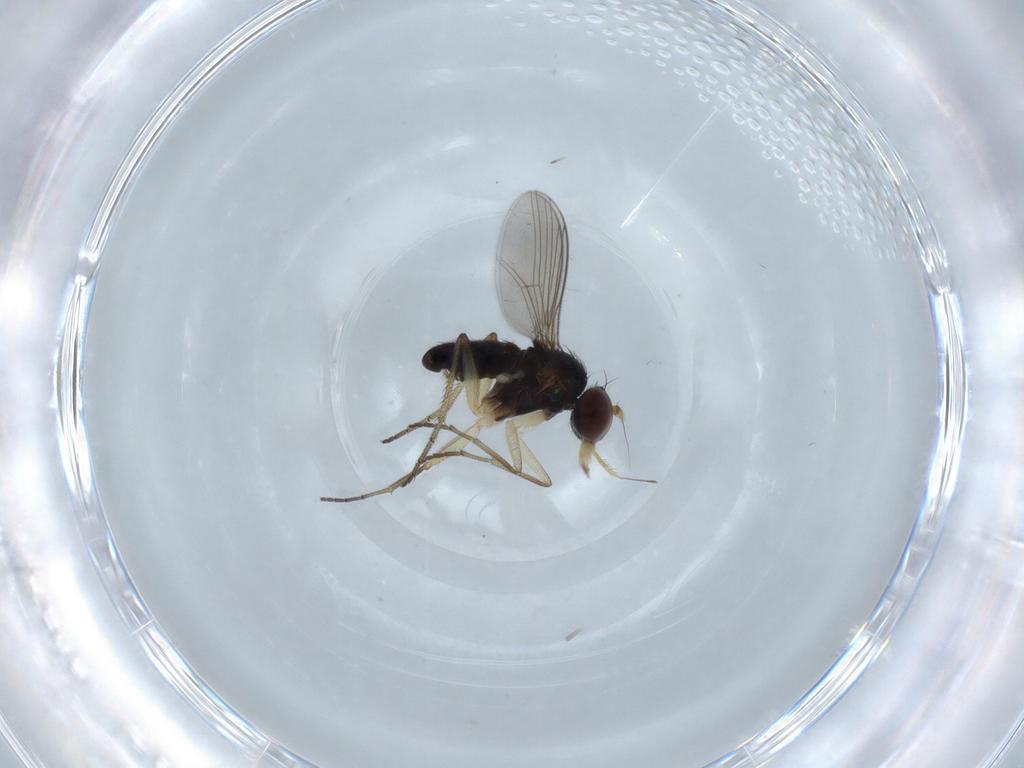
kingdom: Animalia
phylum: Arthropoda
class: Insecta
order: Diptera
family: Dolichopodidae
